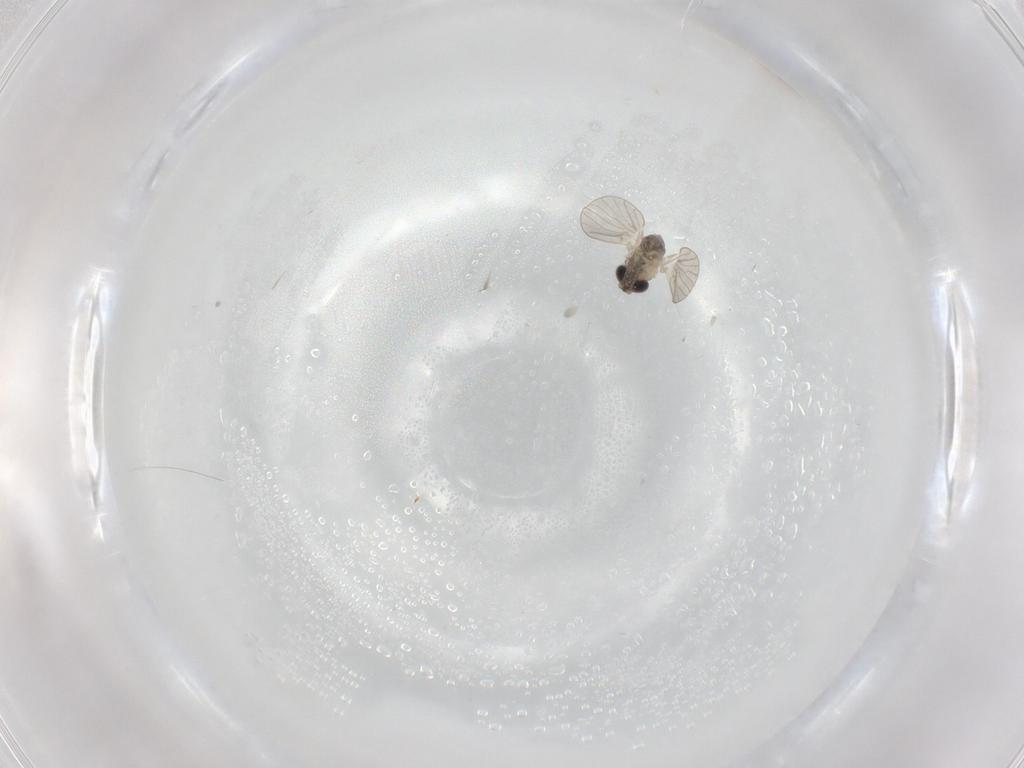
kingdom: Animalia
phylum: Arthropoda
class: Insecta
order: Diptera
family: Psychodidae
